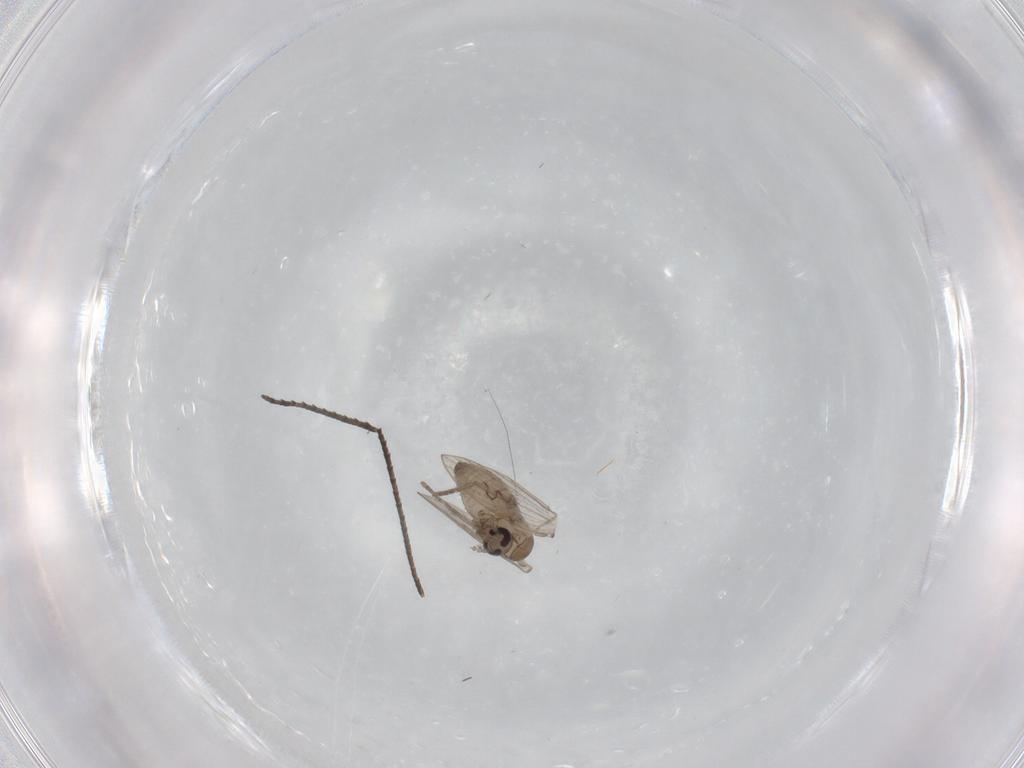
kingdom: Animalia
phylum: Arthropoda
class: Insecta
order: Diptera
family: Psychodidae
